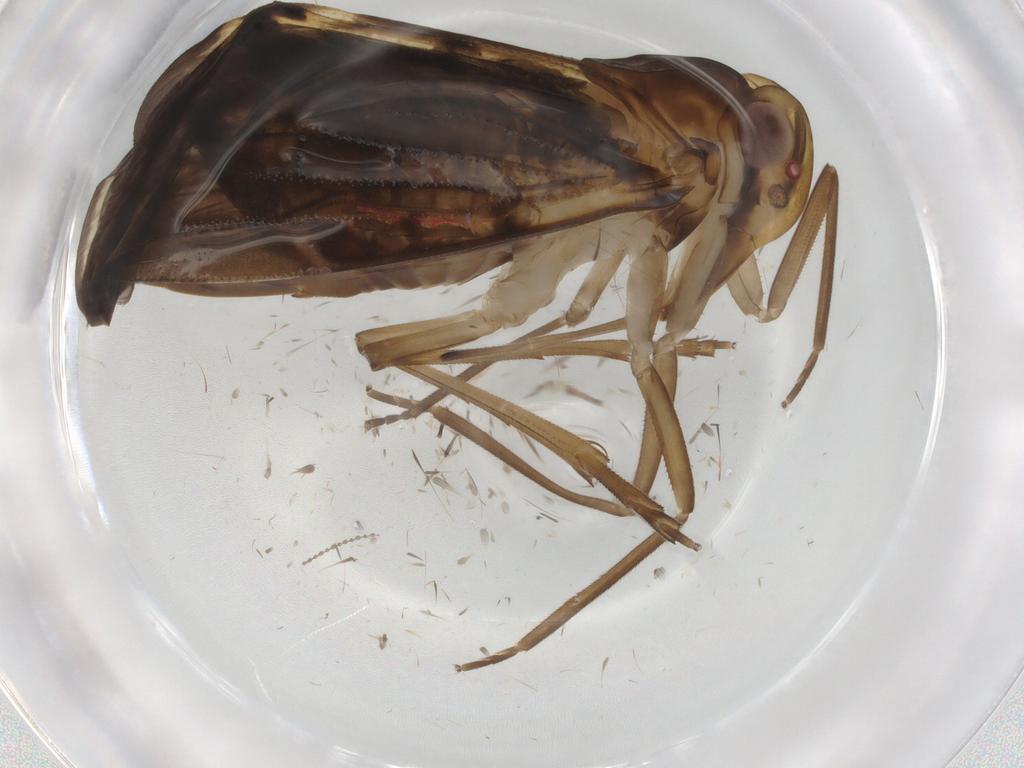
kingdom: Animalia
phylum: Arthropoda
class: Insecta
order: Hemiptera
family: Cixiidae
